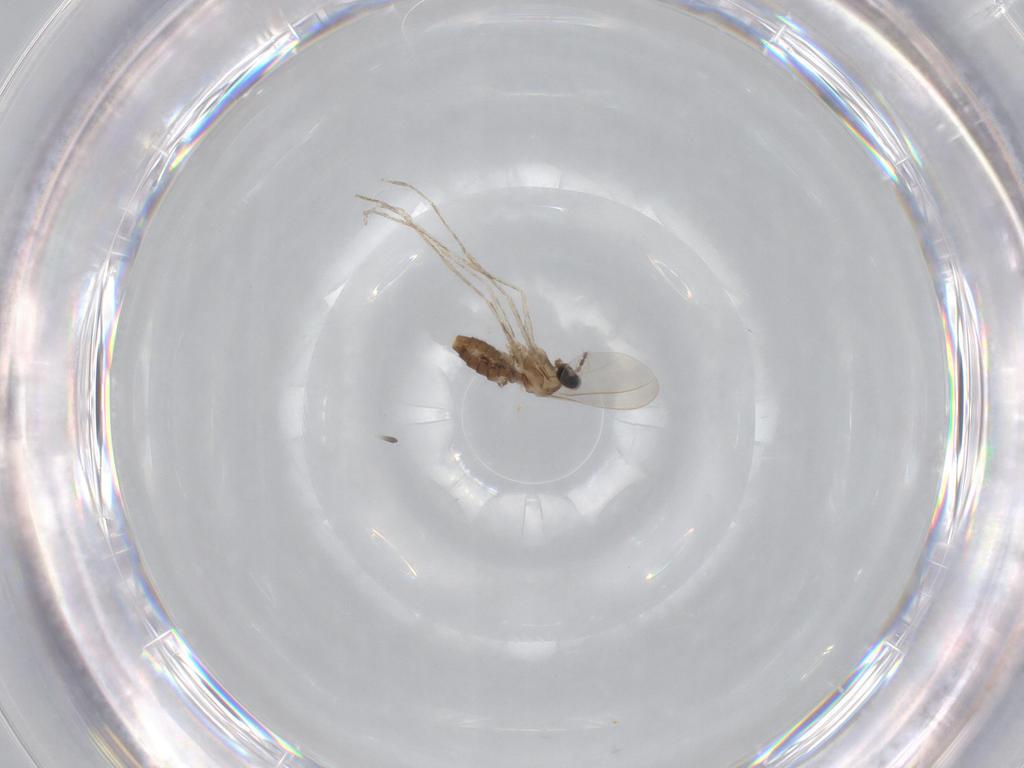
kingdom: Animalia
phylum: Arthropoda
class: Insecta
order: Diptera
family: Cecidomyiidae
